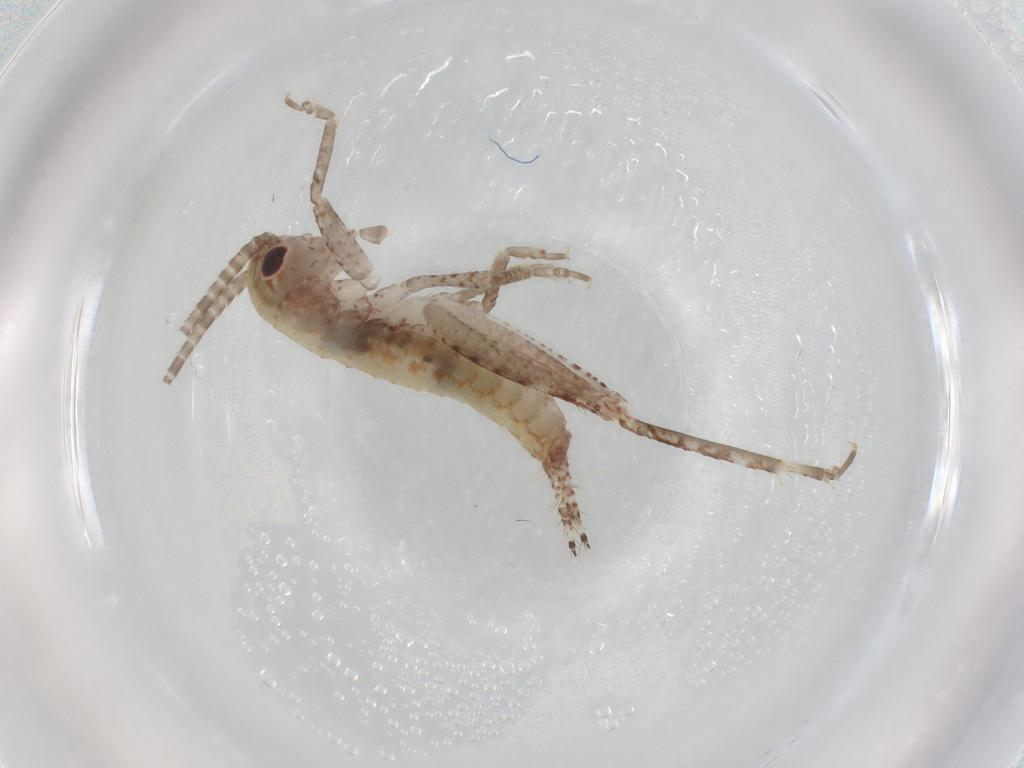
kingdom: Animalia
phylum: Arthropoda
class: Insecta
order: Orthoptera
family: Gryllidae
